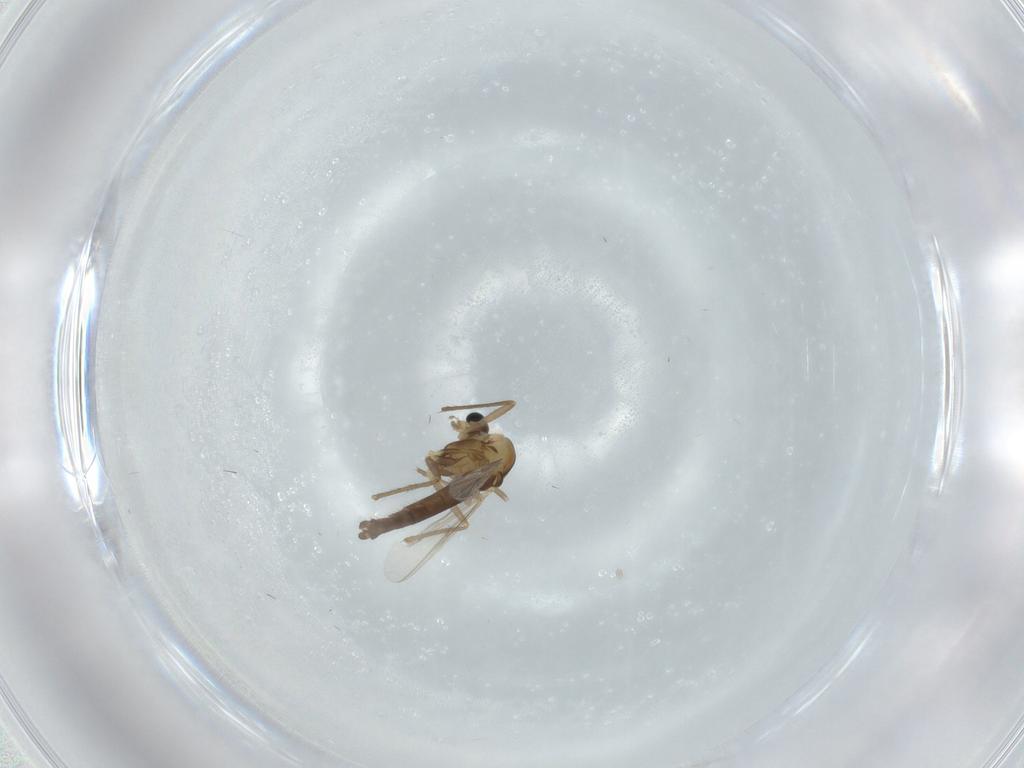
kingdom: Animalia
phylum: Arthropoda
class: Insecta
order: Diptera
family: Chironomidae
